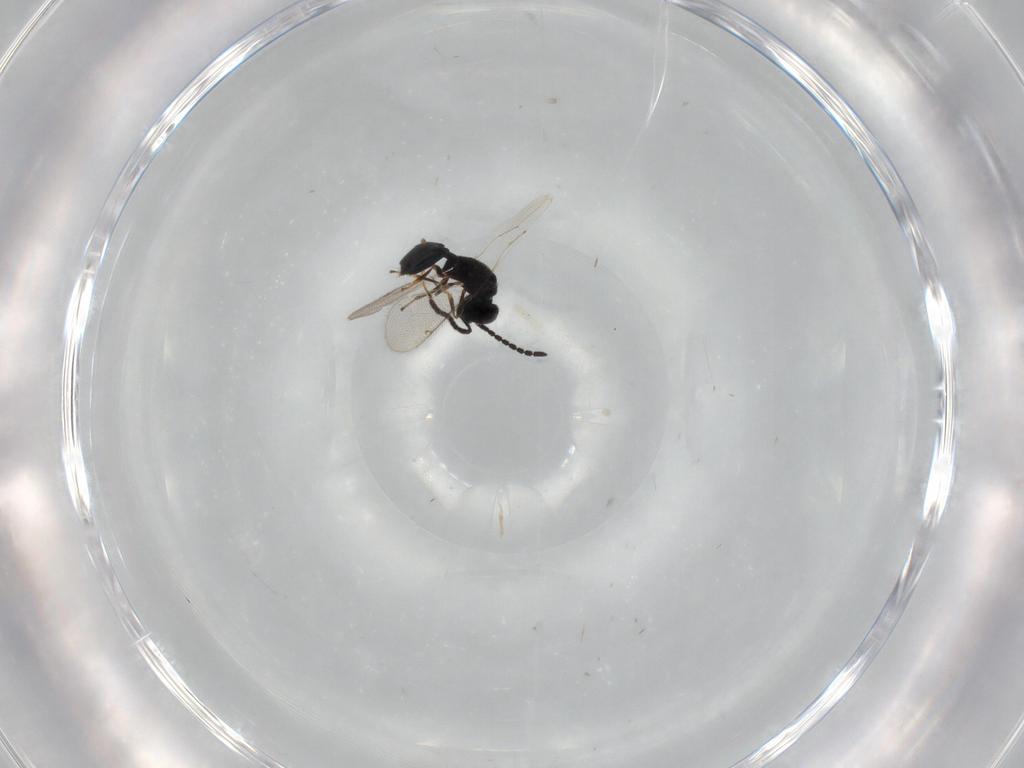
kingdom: Animalia
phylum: Arthropoda
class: Insecta
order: Hymenoptera
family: Spalangiidae
